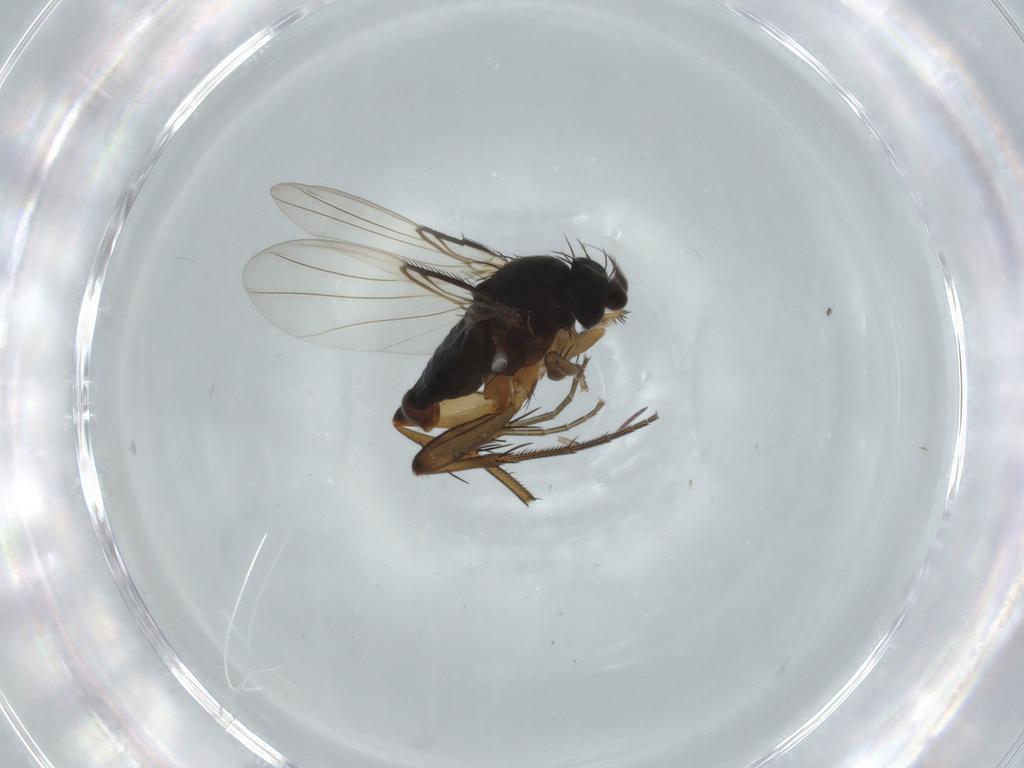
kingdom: Animalia
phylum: Arthropoda
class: Insecta
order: Diptera
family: Phoridae
